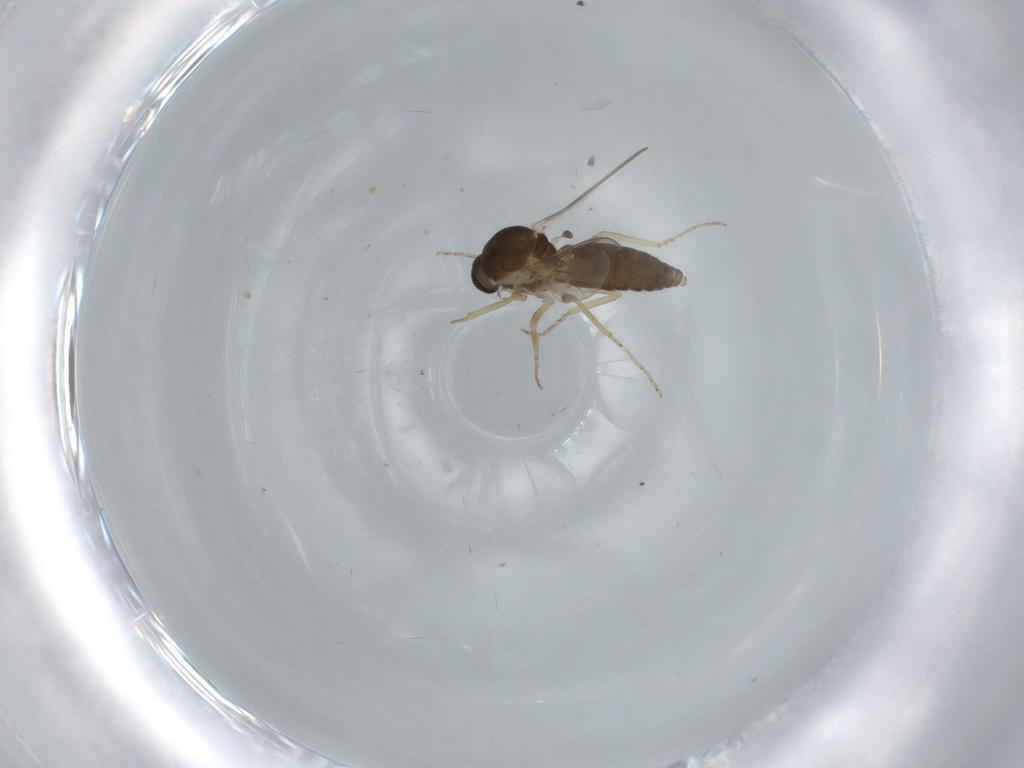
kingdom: Animalia
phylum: Arthropoda
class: Insecta
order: Diptera
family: Ceratopogonidae
